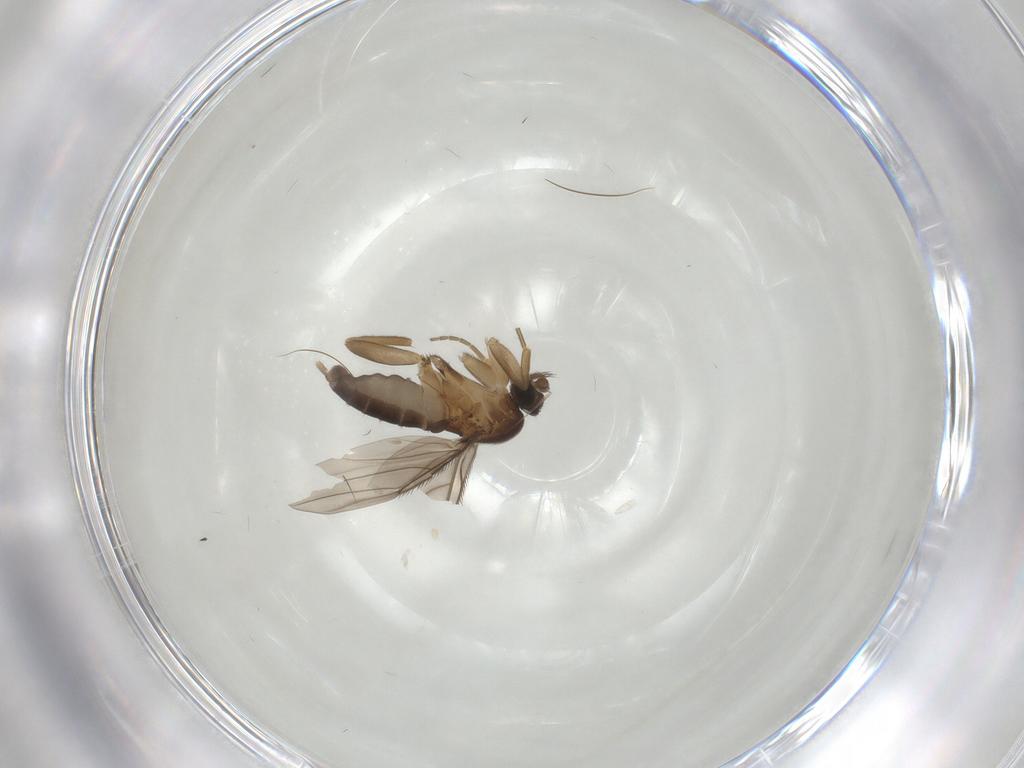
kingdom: Animalia
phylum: Arthropoda
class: Insecta
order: Diptera
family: Phoridae
